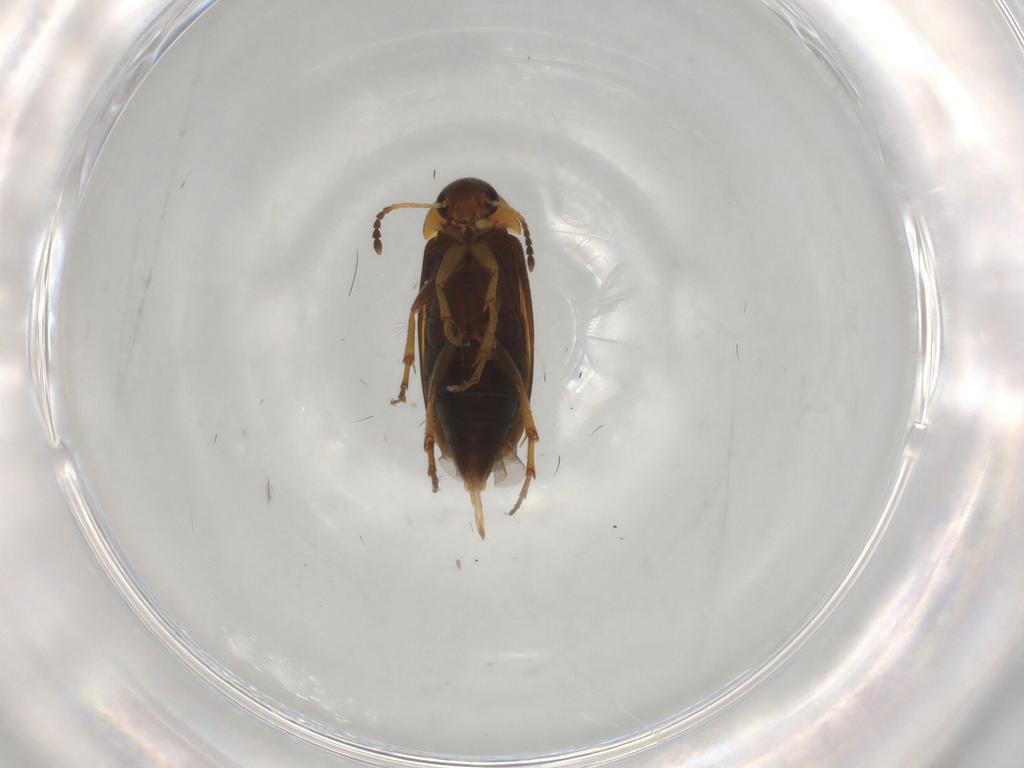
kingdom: Animalia
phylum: Arthropoda
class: Insecta
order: Coleoptera
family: Scraptiidae
